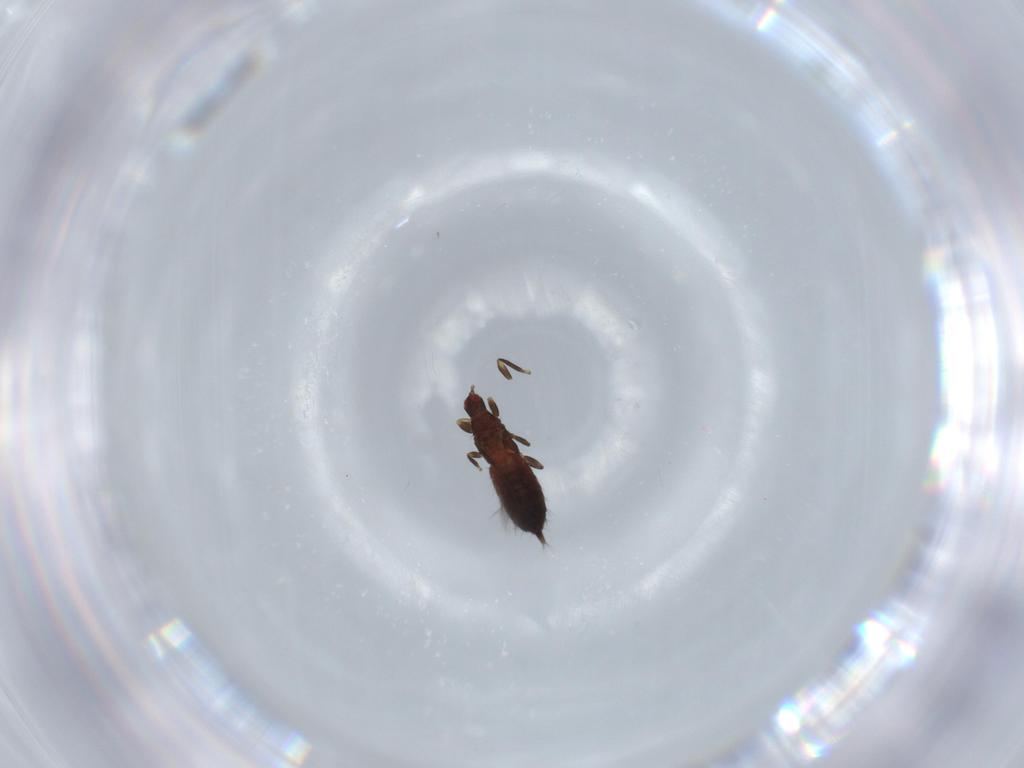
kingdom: Animalia
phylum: Arthropoda
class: Insecta
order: Thysanoptera
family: Phlaeothripidae
